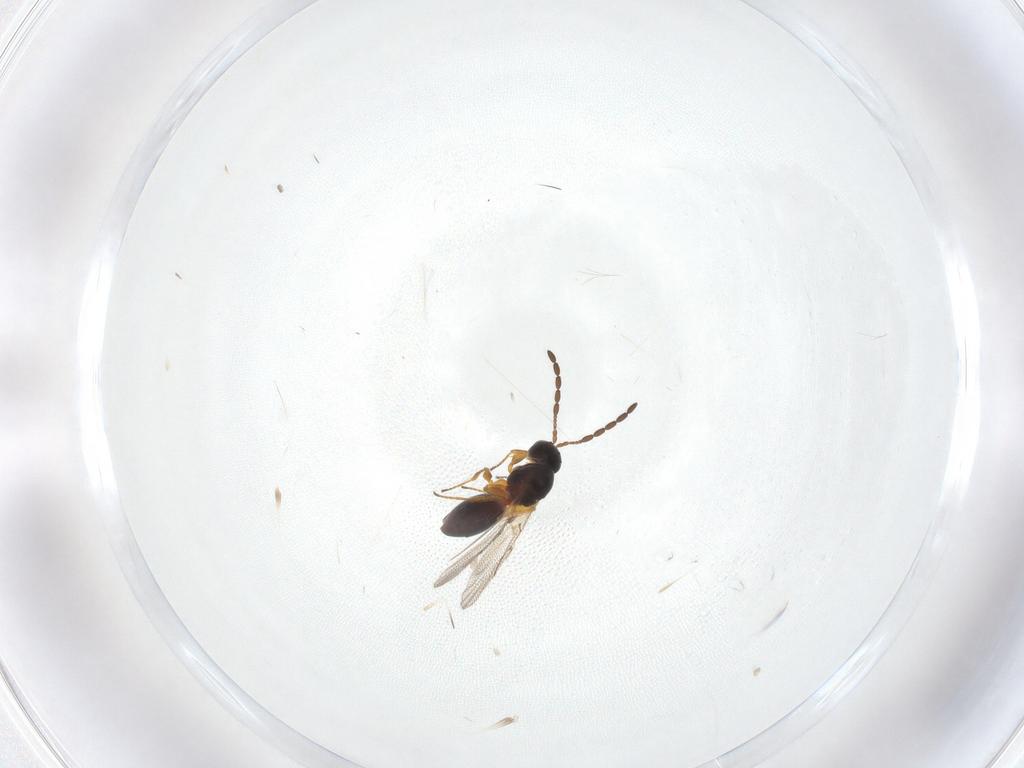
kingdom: Animalia
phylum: Arthropoda
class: Insecta
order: Hymenoptera
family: Figitidae
